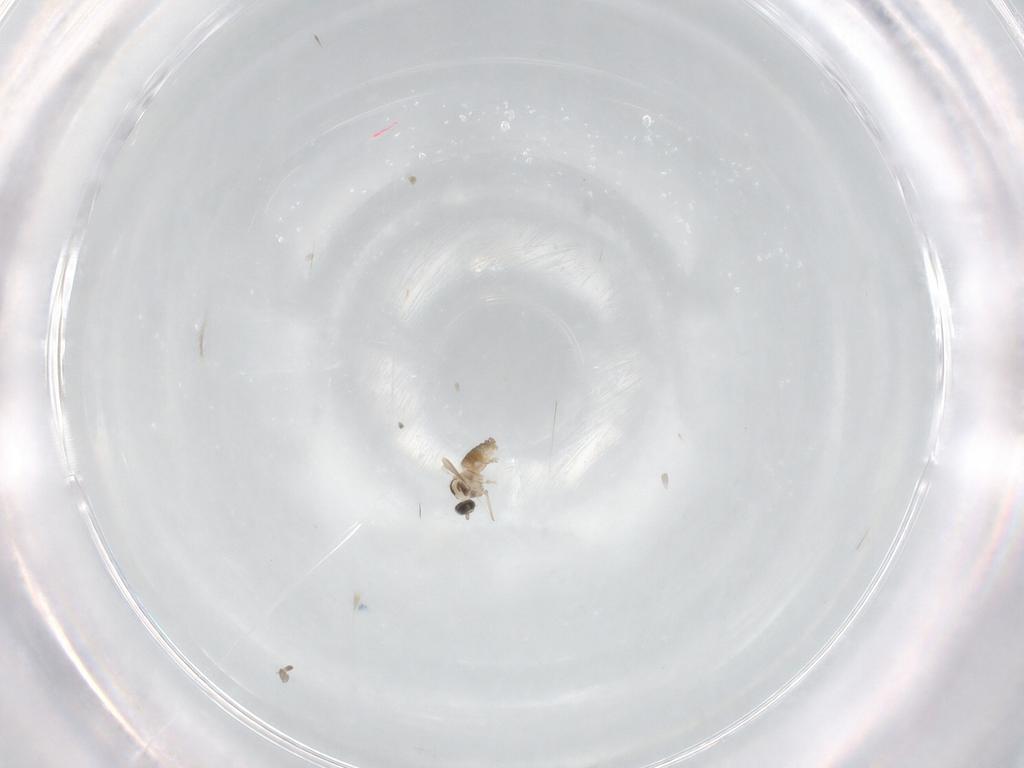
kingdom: Animalia
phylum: Arthropoda
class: Insecta
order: Diptera
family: Cecidomyiidae
